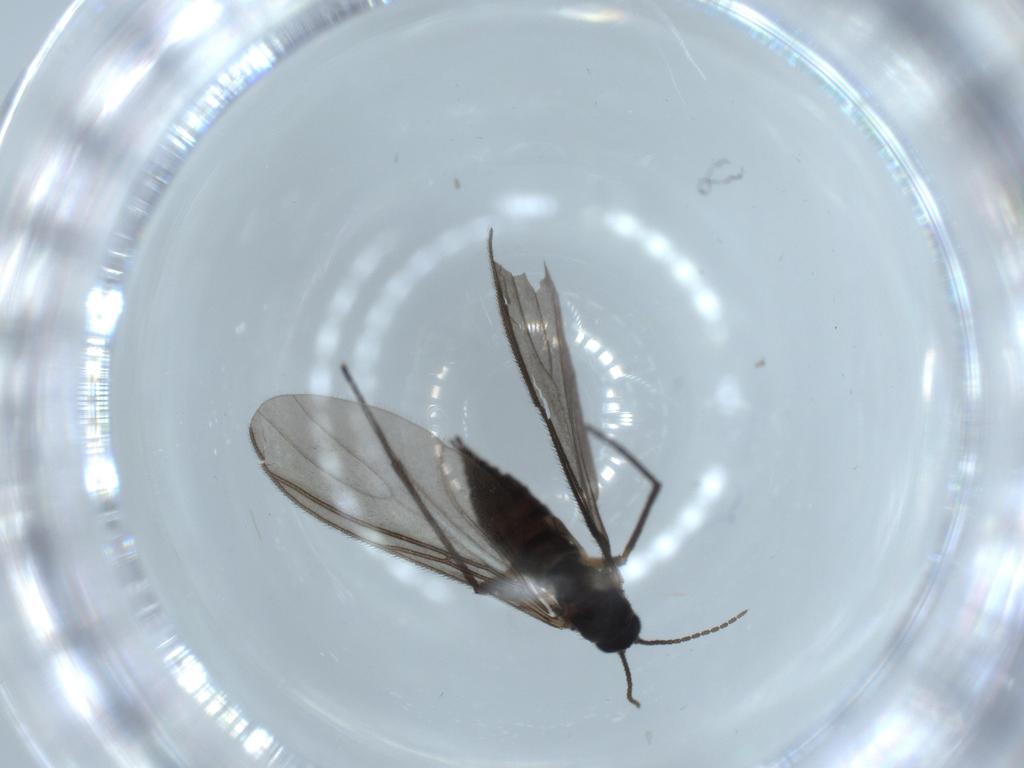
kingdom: Animalia
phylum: Arthropoda
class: Insecta
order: Diptera
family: Sciaridae
